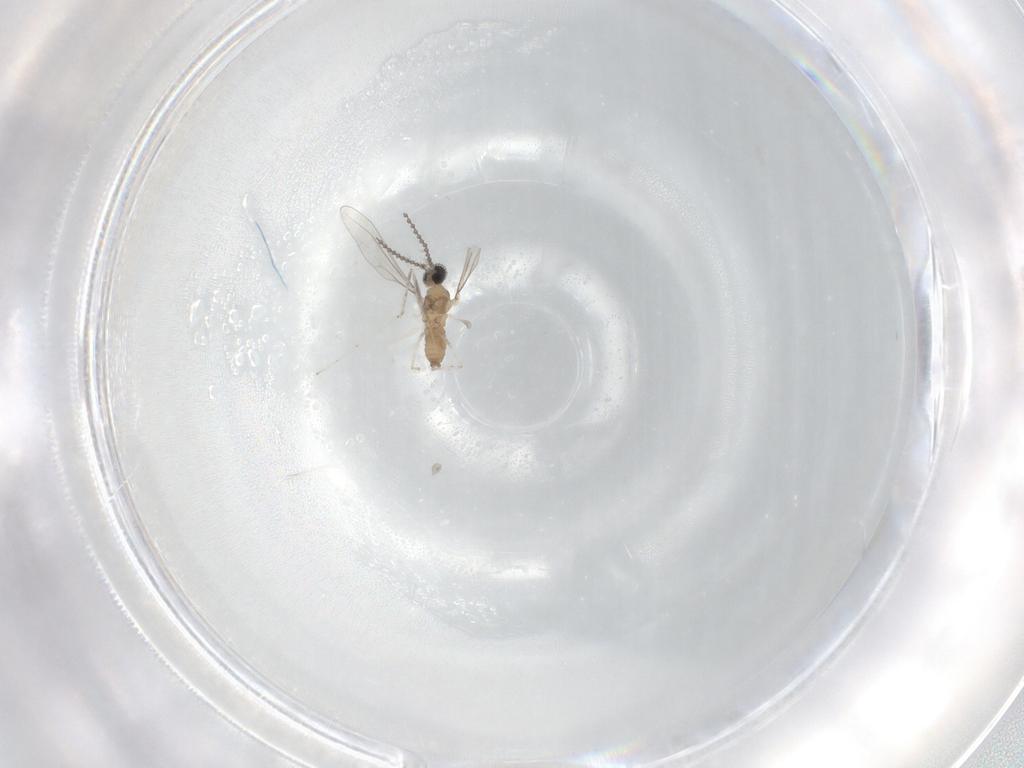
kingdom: Animalia
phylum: Arthropoda
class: Insecta
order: Diptera
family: Cecidomyiidae
